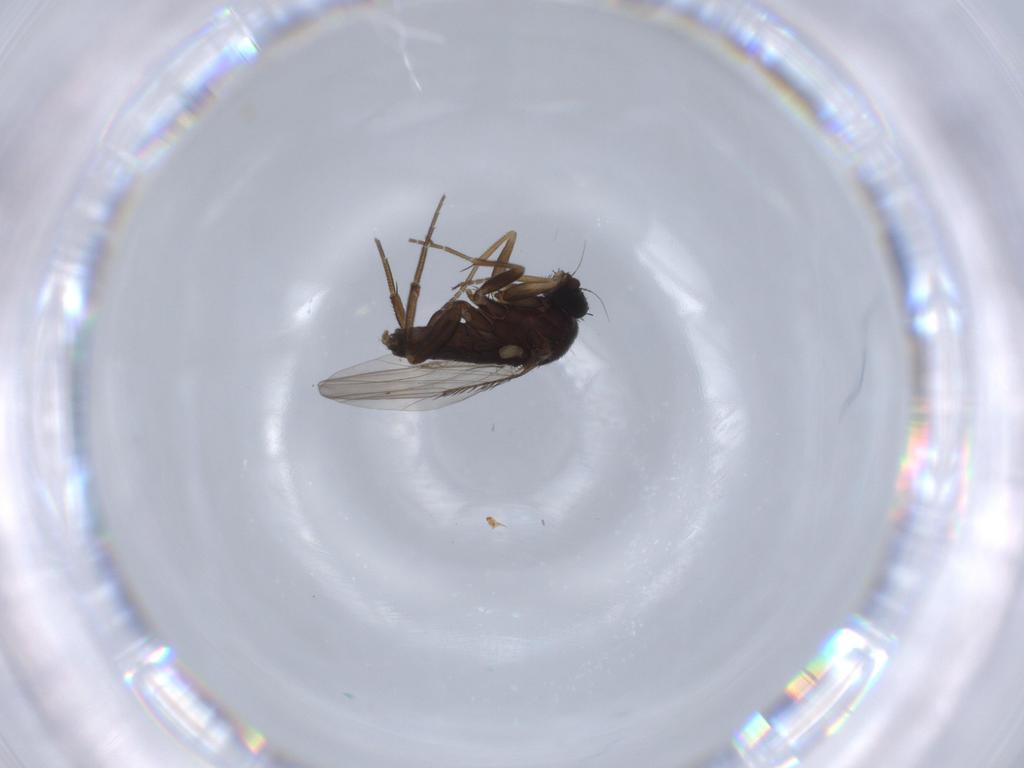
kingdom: Animalia
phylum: Arthropoda
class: Insecta
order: Diptera
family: Phoridae
